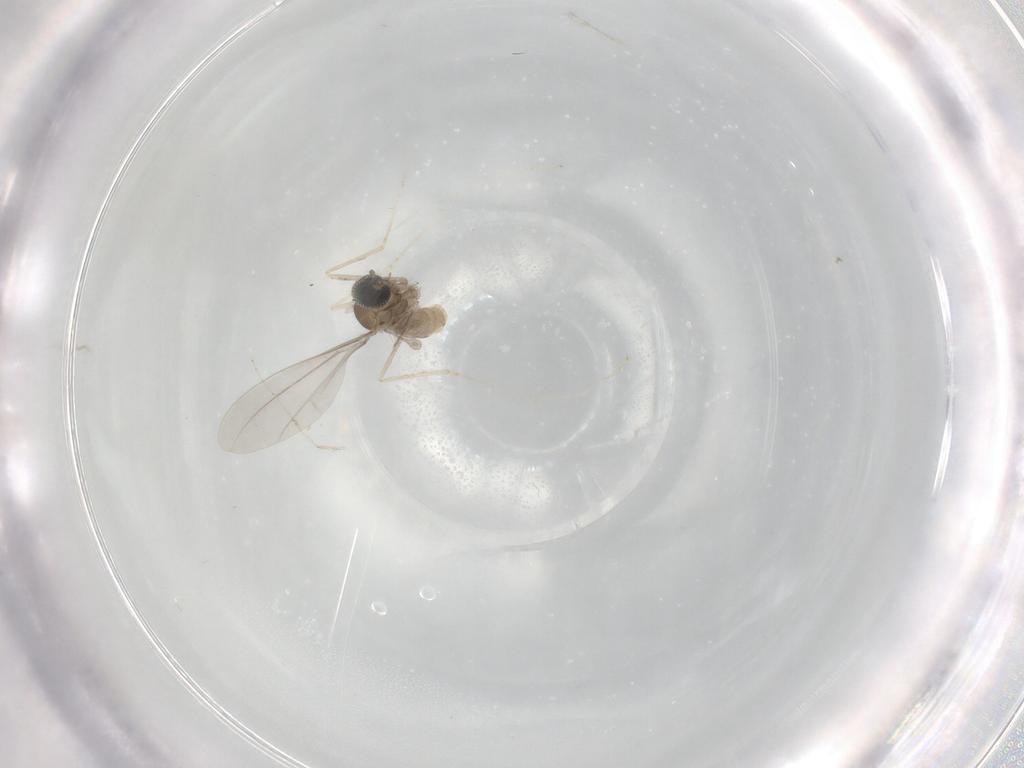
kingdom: Animalia
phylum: Arthropoda
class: Insecta
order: Diptera
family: Cecidomyiidae
